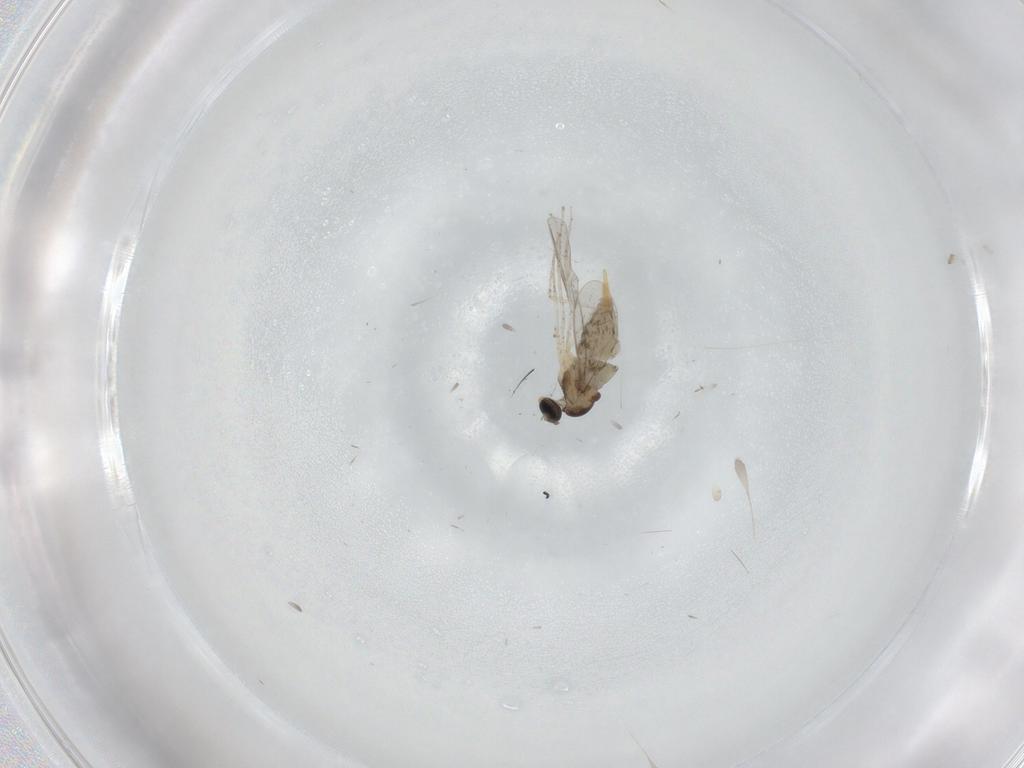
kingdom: Animalia
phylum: Arthropoda
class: Insecta
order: Diptera
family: Cecidomyiidae
